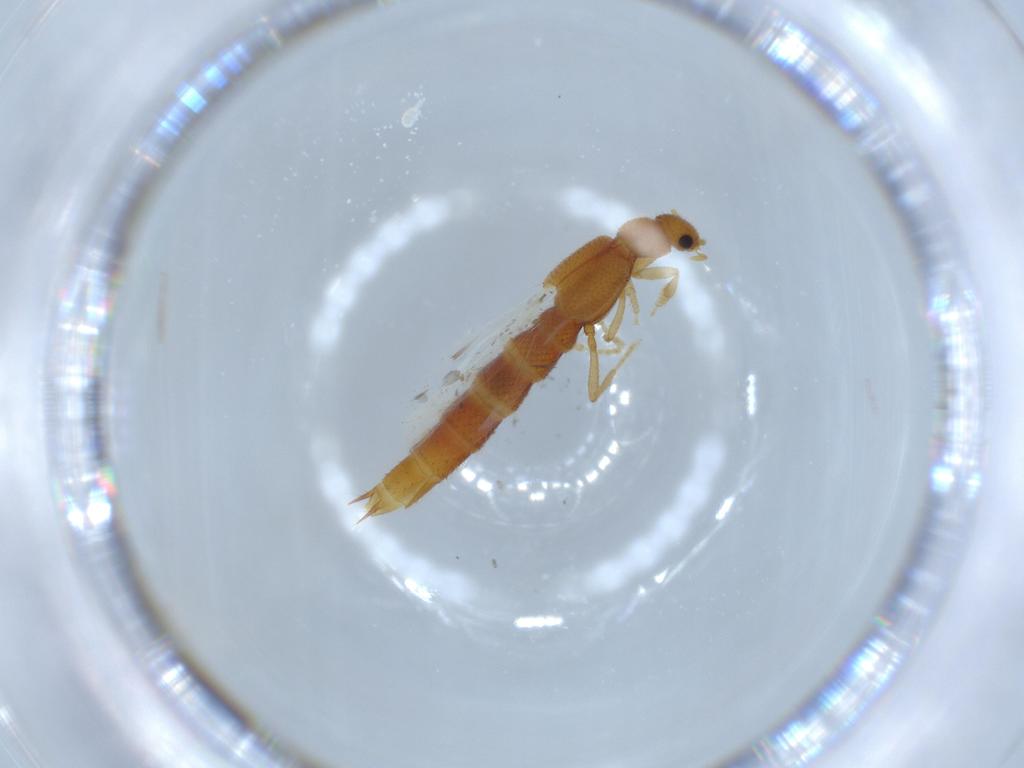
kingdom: Animalia
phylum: Arthropoda
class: Insecta
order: Coleoptera
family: Staphylinidae
